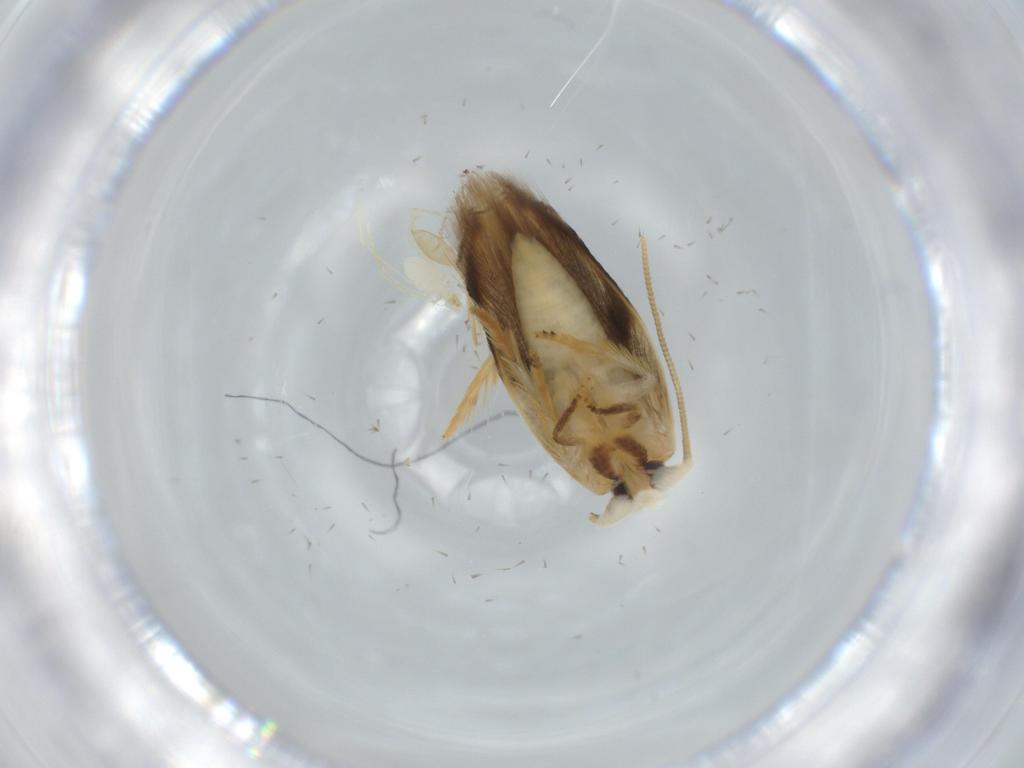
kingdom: Animalia
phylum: Arthropoda
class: Insecta
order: Lepidoptera
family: Opostegidae
